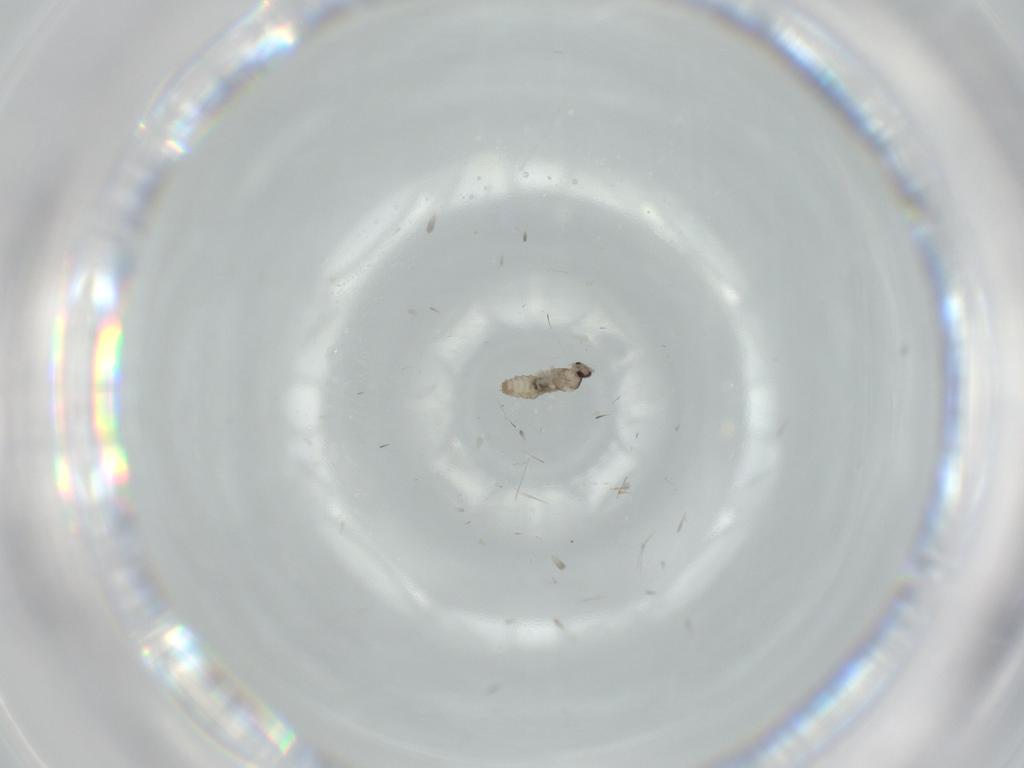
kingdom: Animalia
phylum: Arthropoda
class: Insecta
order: Diptera
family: Cecidomyiidae
